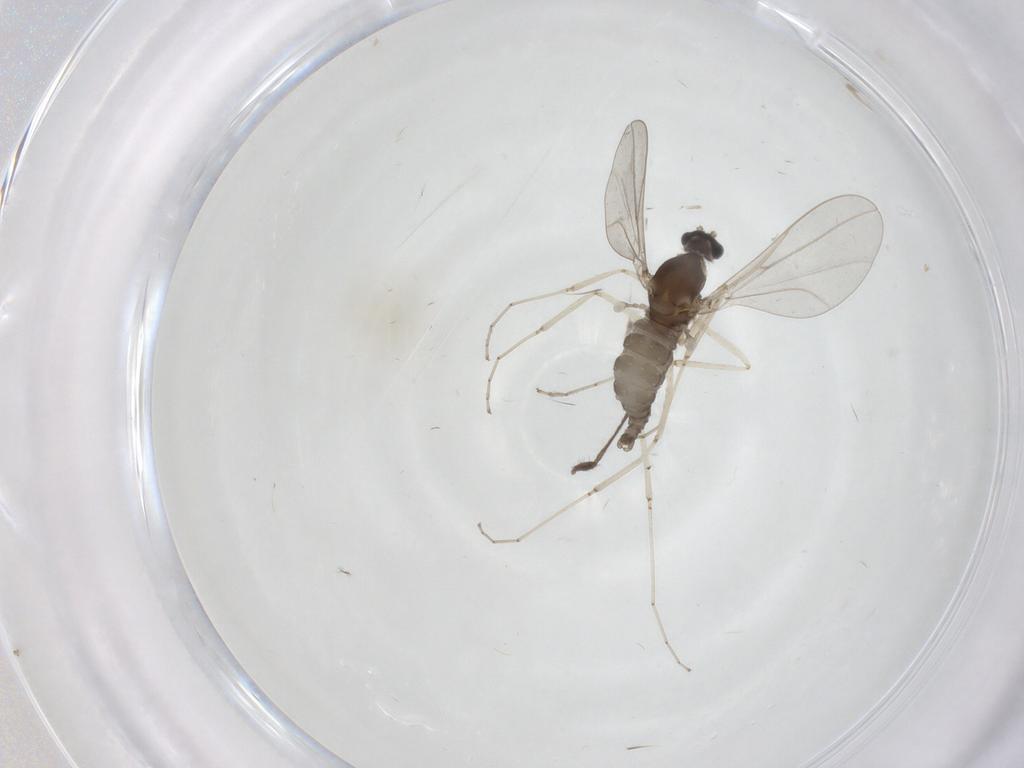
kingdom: Animalia
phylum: Arthropoda
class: Insecta
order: Diptera
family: Cecidomyiidae
